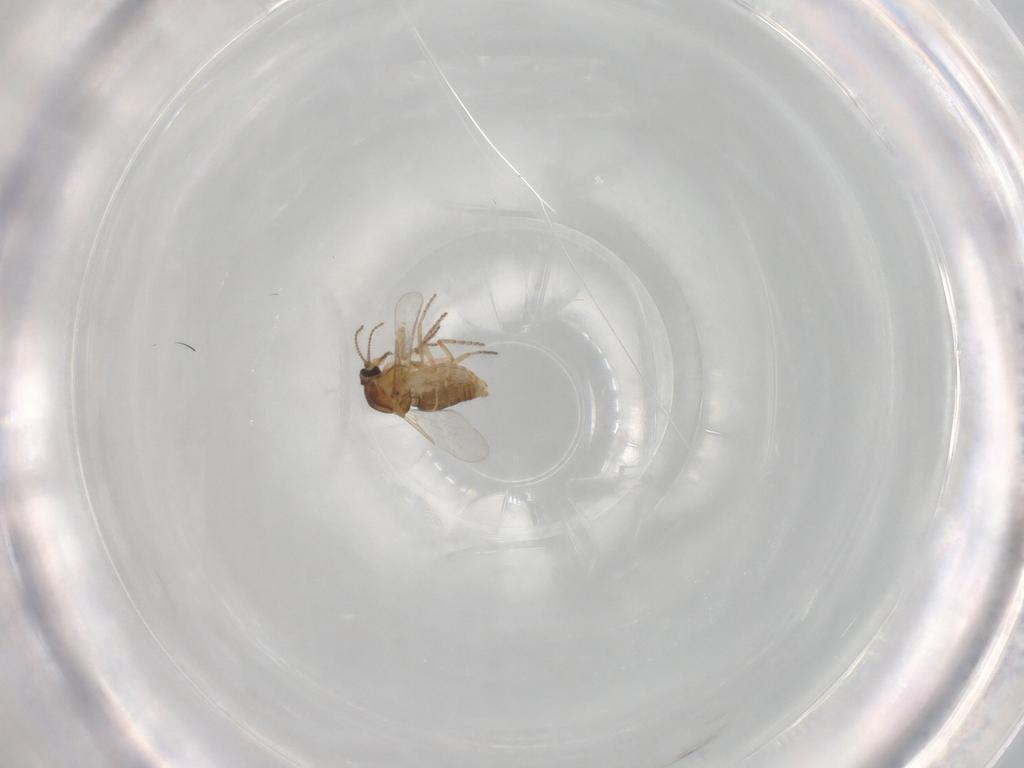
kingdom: Animalia
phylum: Arthropoda
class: Insecta
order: Diptera
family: Ceratopogonidae
